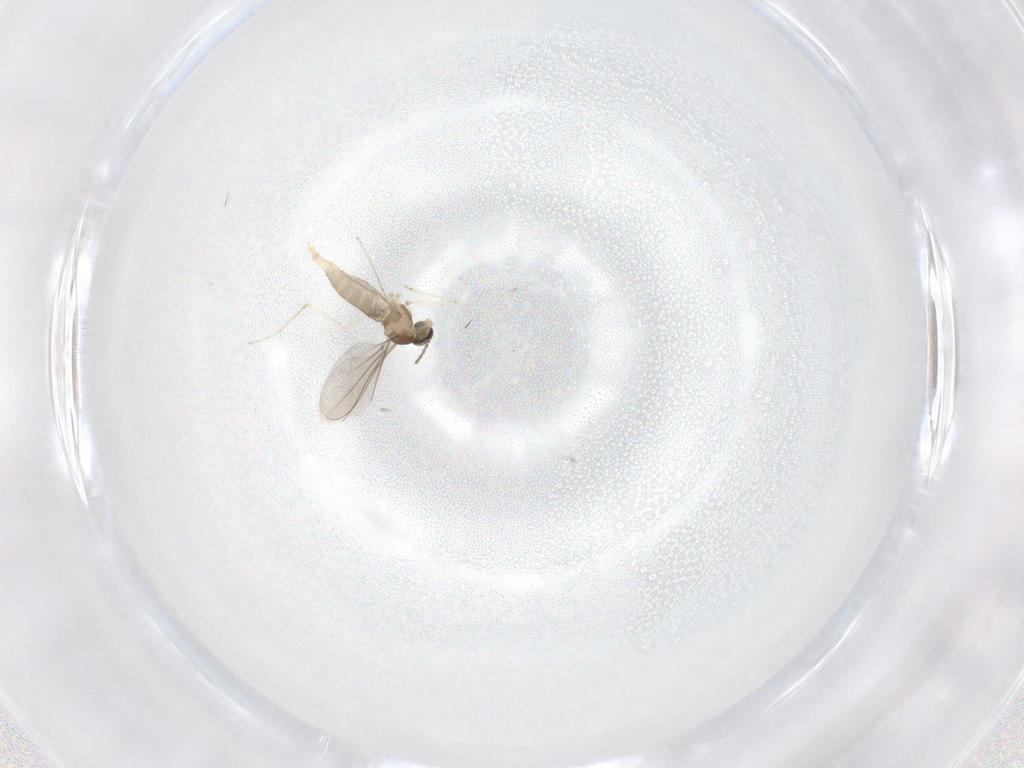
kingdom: Animalia
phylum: Arthropoda
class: Insecta
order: Diptera
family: Cecidomyiidae
